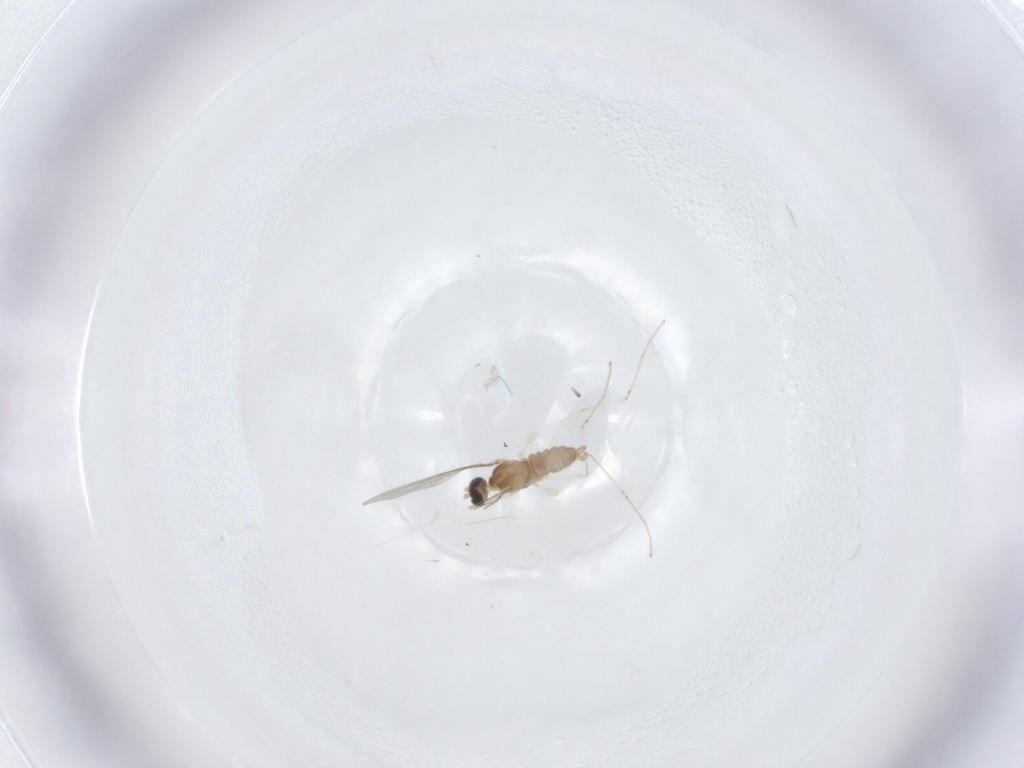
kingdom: Animalia
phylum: Arthropoda
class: Insecta
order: Diptera
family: Cecidomyiidae
